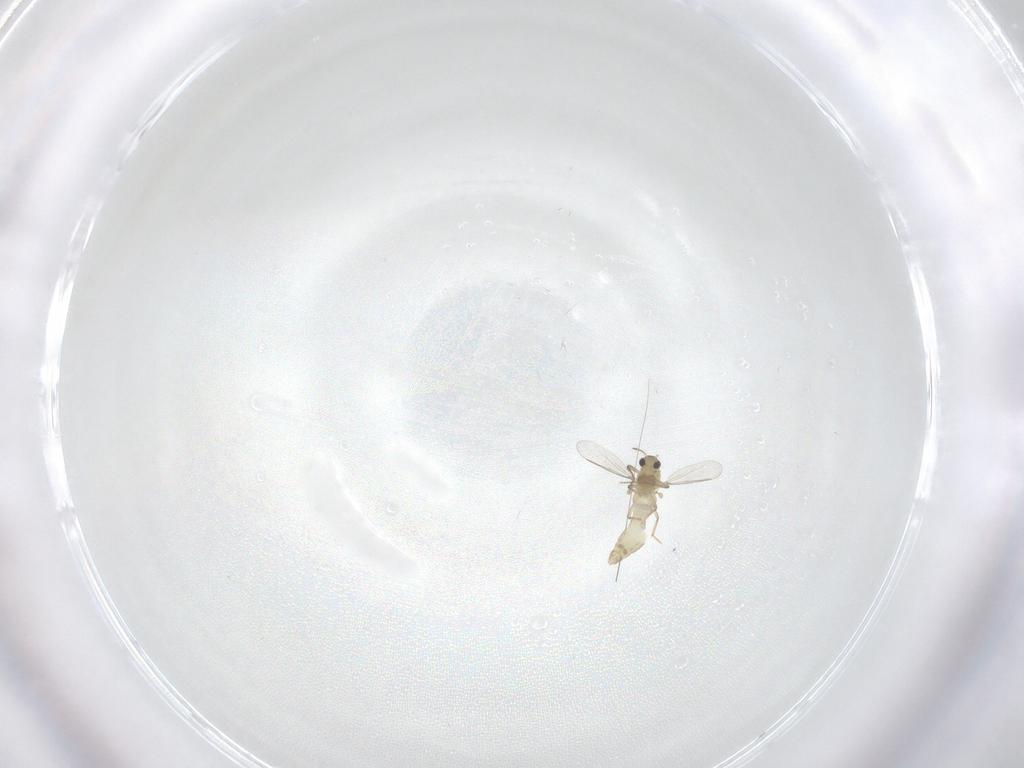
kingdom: Animalia
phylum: Arthropoda
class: Insecta
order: Diptera
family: Chironomidae
